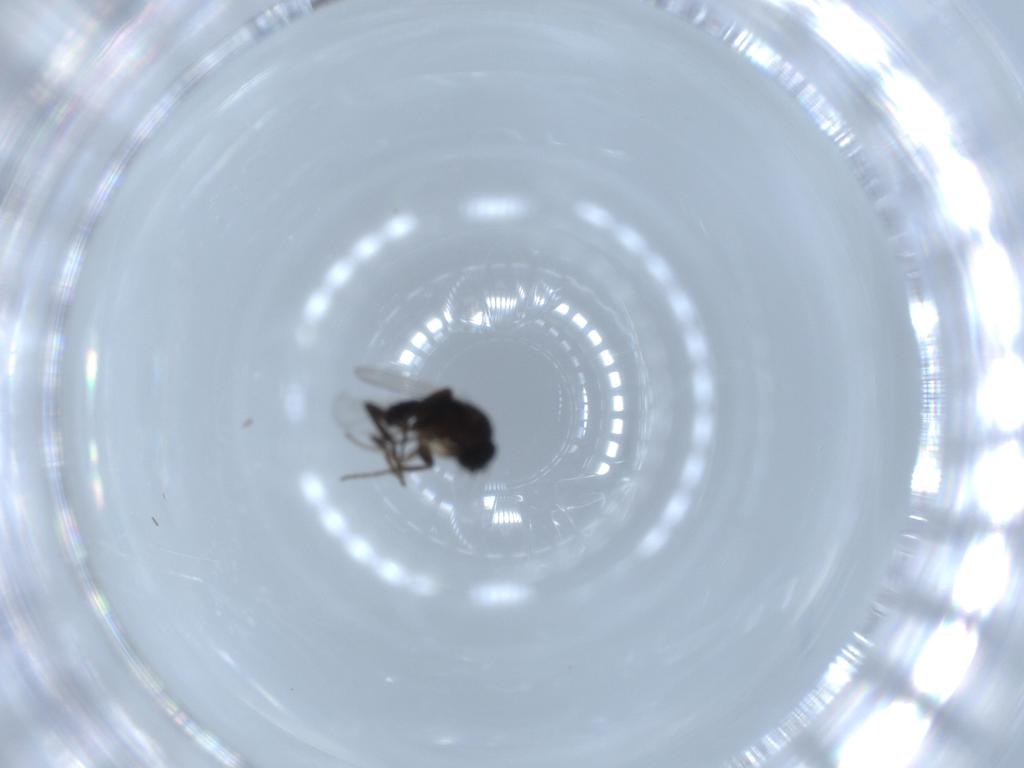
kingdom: Animalia
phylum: Arthropoda
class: Insecta
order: Diptera
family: Phoridae
